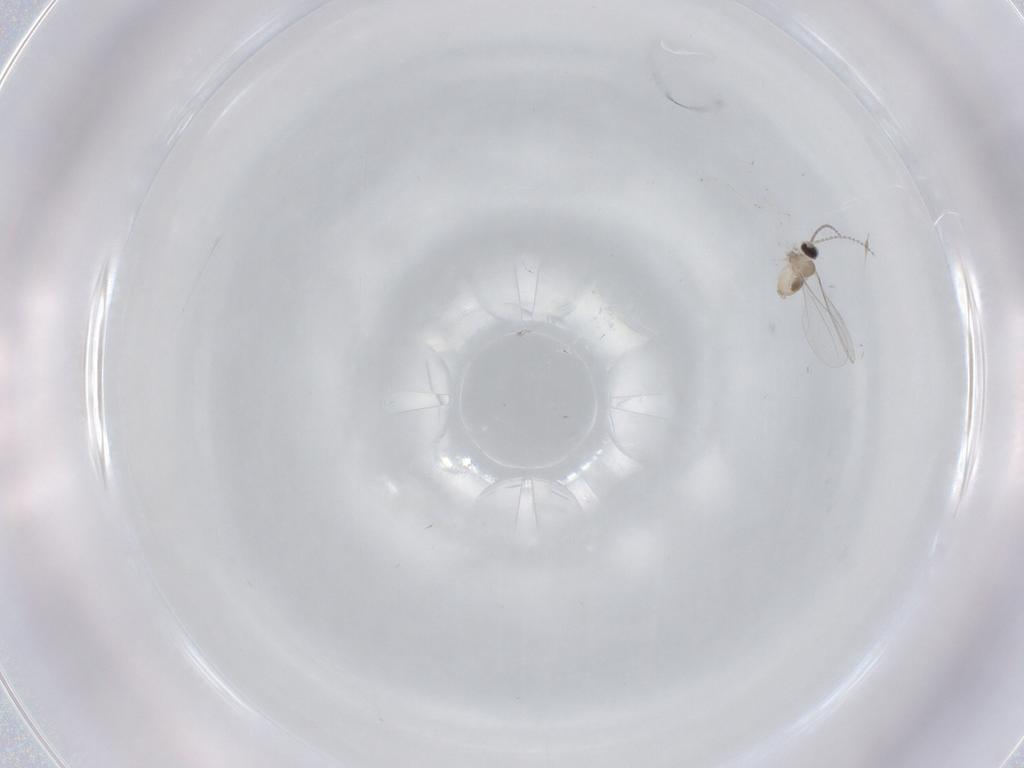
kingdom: Animalia
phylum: Arthropoda
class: Insecta
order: Diptera
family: Cecidomyiidae
